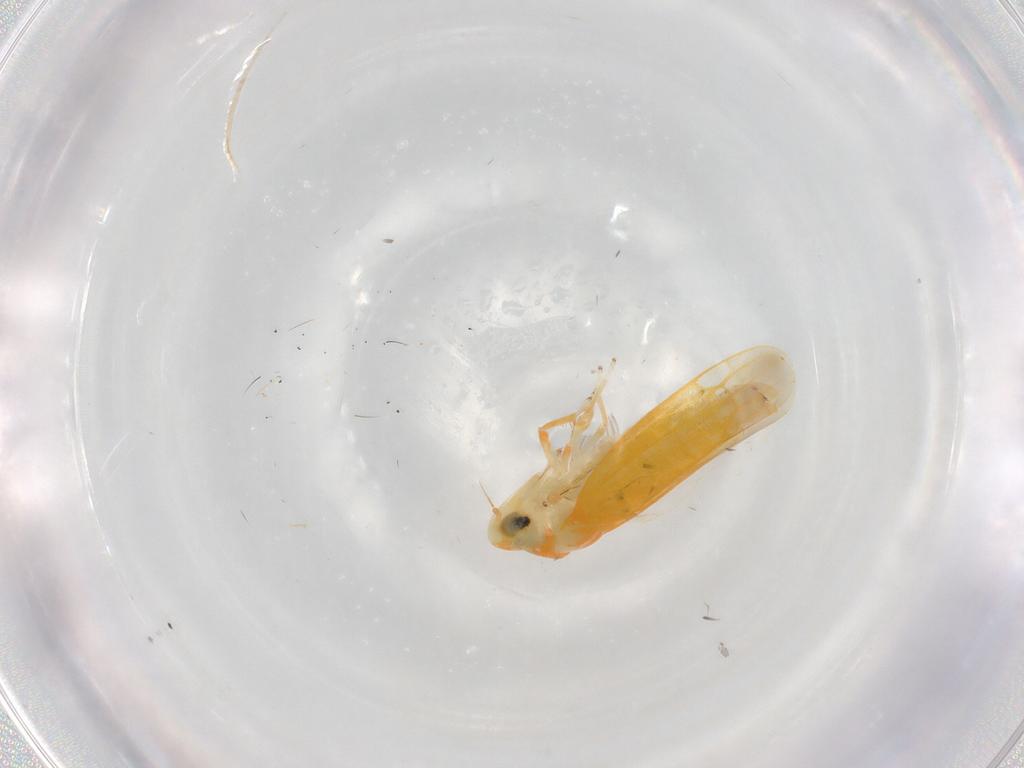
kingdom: Animalia
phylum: Arthropoda
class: Insecta
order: Hemiptera
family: Cicadellidae
